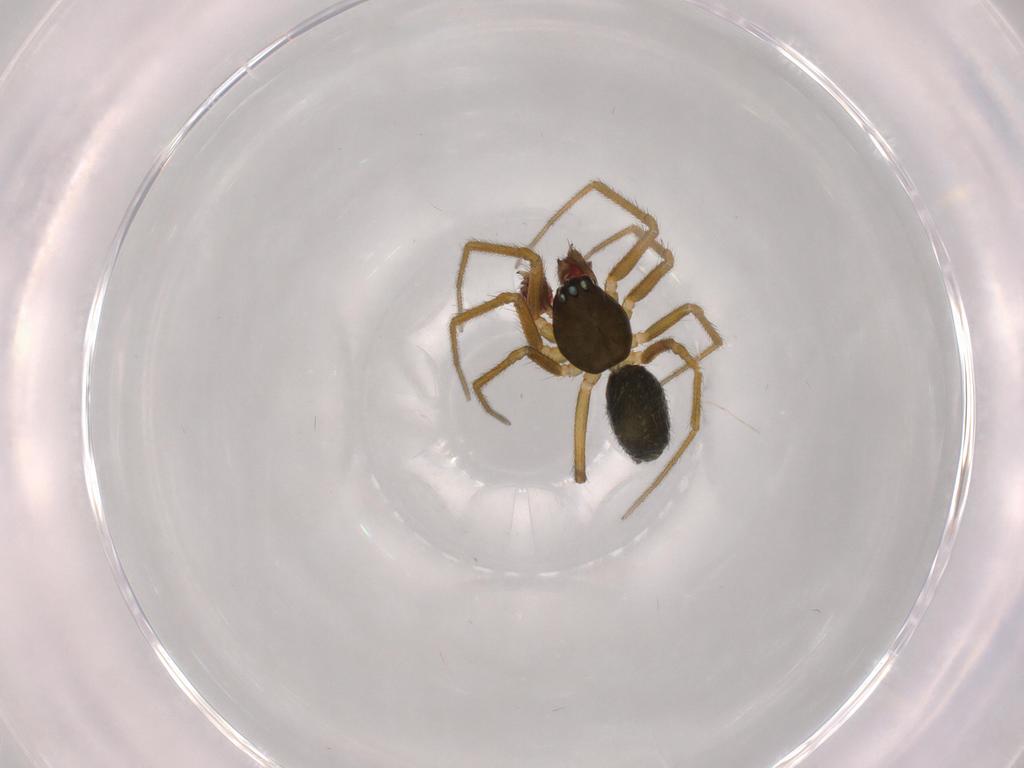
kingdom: Animalia
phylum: Arthropoda
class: Arachnida
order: Araneae
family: Linyphiidae
